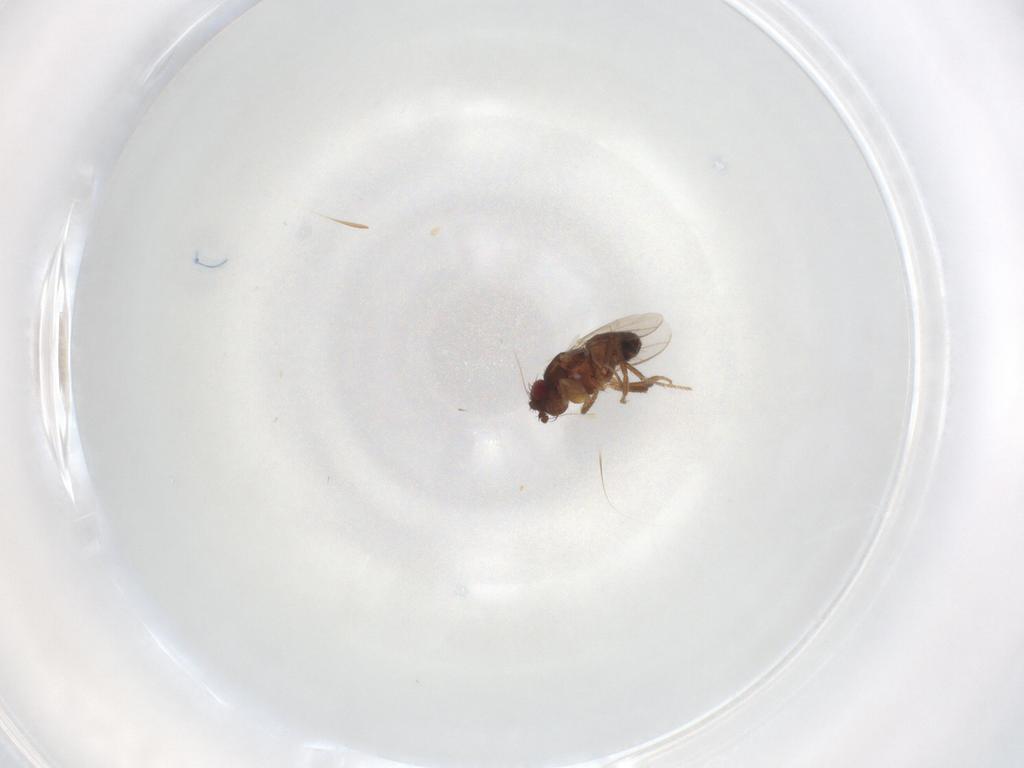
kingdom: Animalia
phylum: Arthropoda
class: Insecta
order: Diptera
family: Sphaeroceridae
